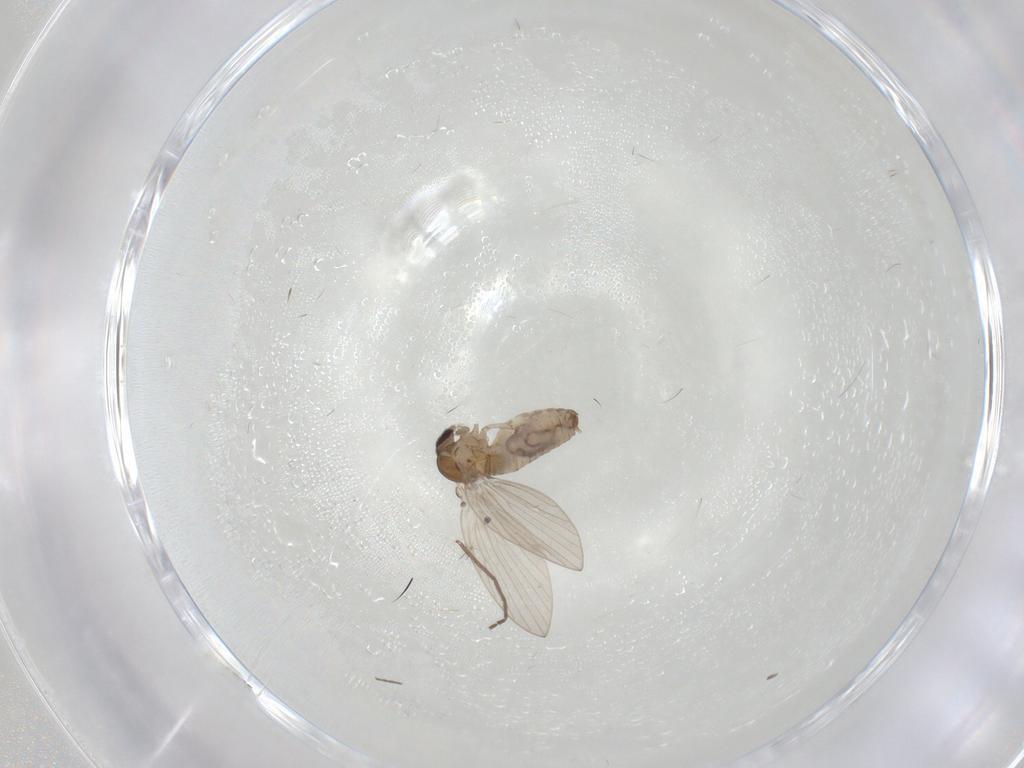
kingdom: Animalia
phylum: Arthropoda
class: Insecta
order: Diptera
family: Psychodidae
